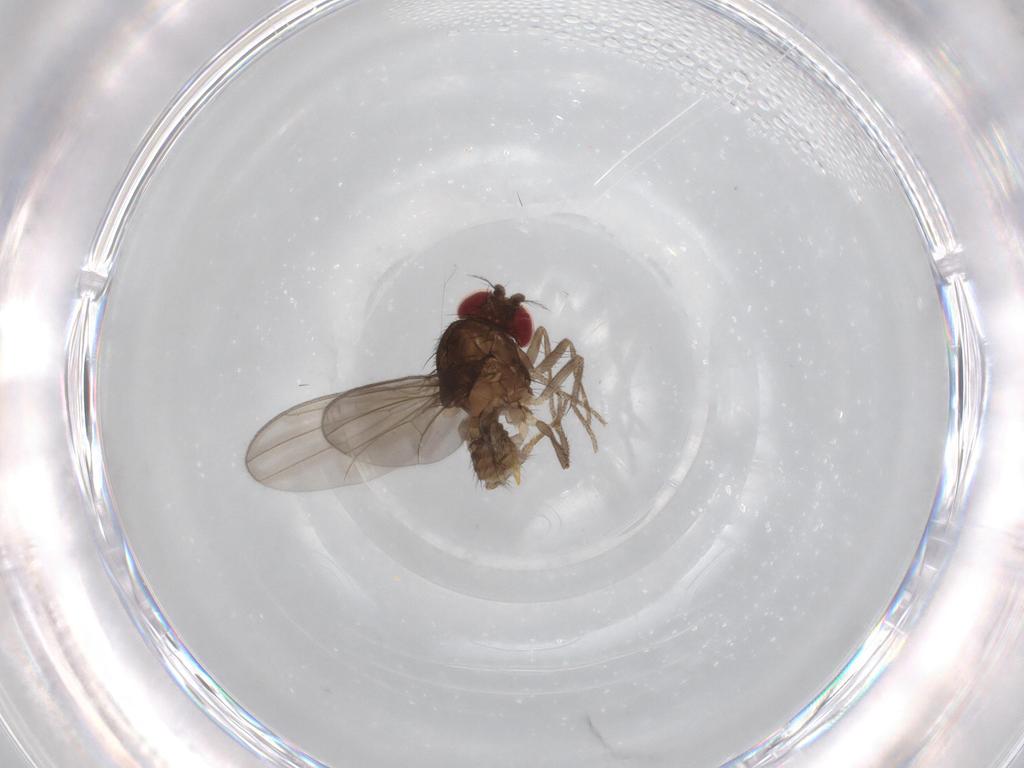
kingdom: Animalia
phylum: Arthropoda
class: Insecta
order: Diptera
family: Drosophilidae
